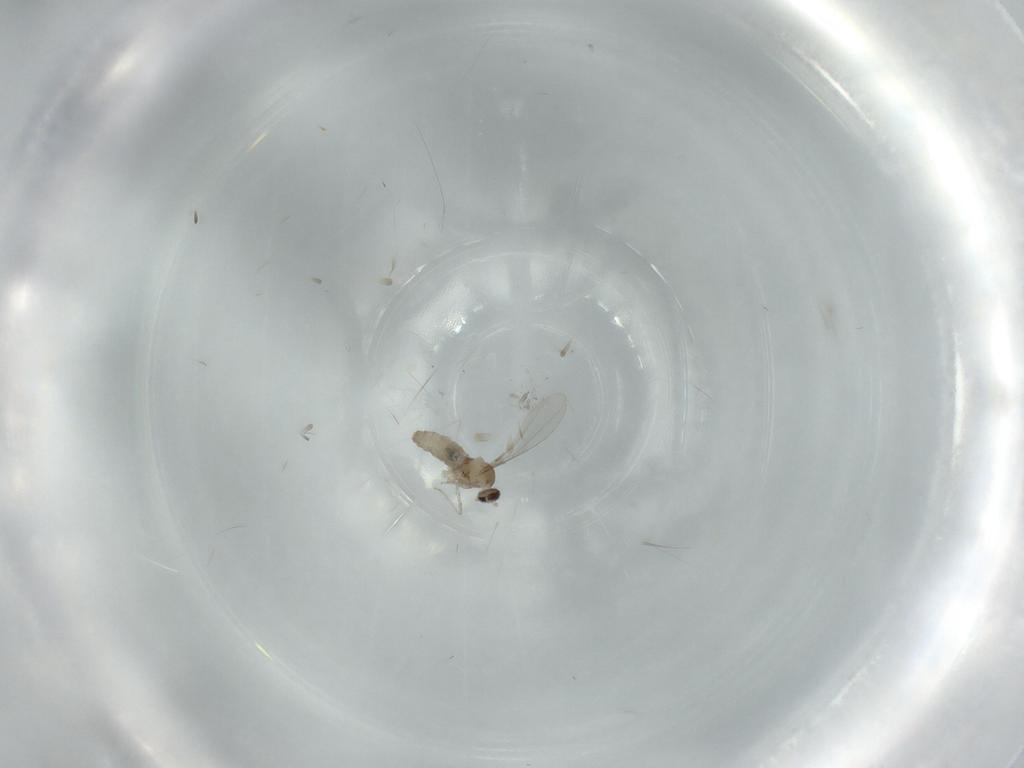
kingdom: Animalia
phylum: Arthropoda
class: Insecta
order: Diptera
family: Cecidomyiidae
